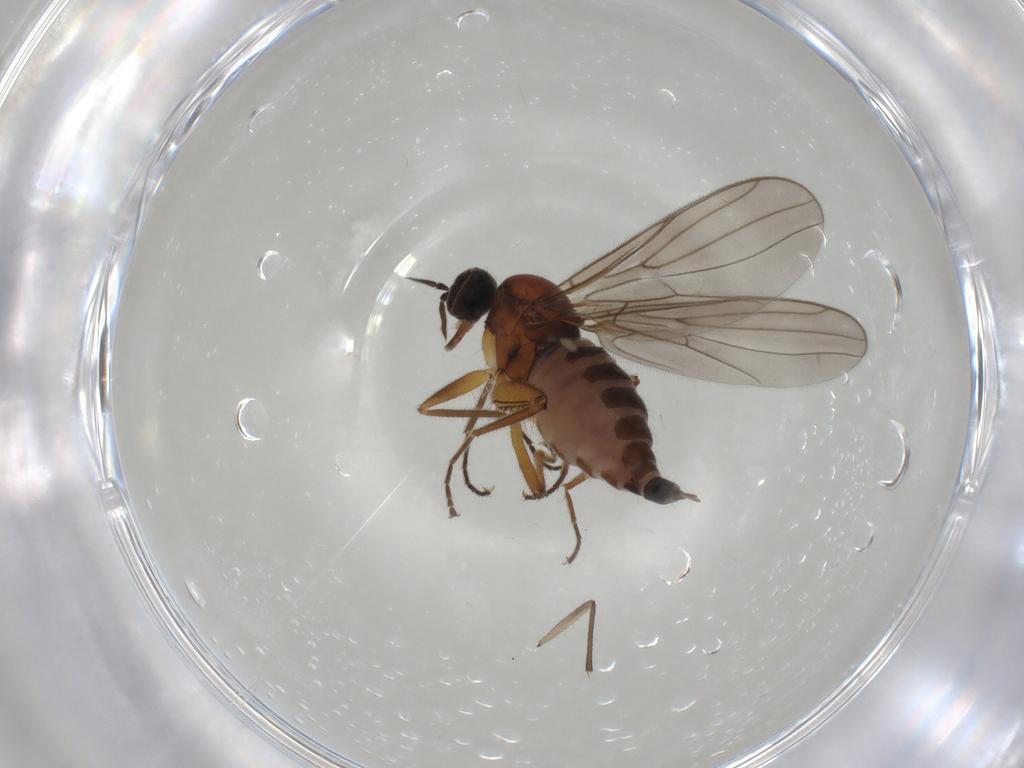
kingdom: Animalia
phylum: Arthropoda
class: Insecta
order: Diptera
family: Hybotidae
